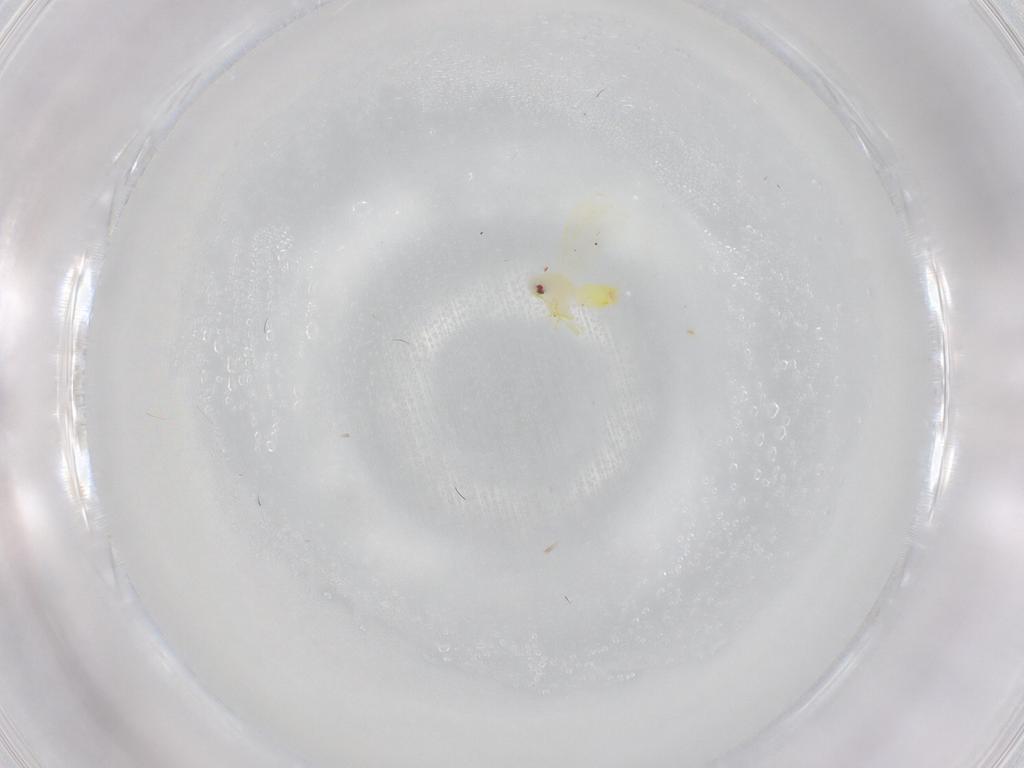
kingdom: Animalia
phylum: Arthropoda
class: Insecta
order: Hemiptera
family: Aleyrodidae
